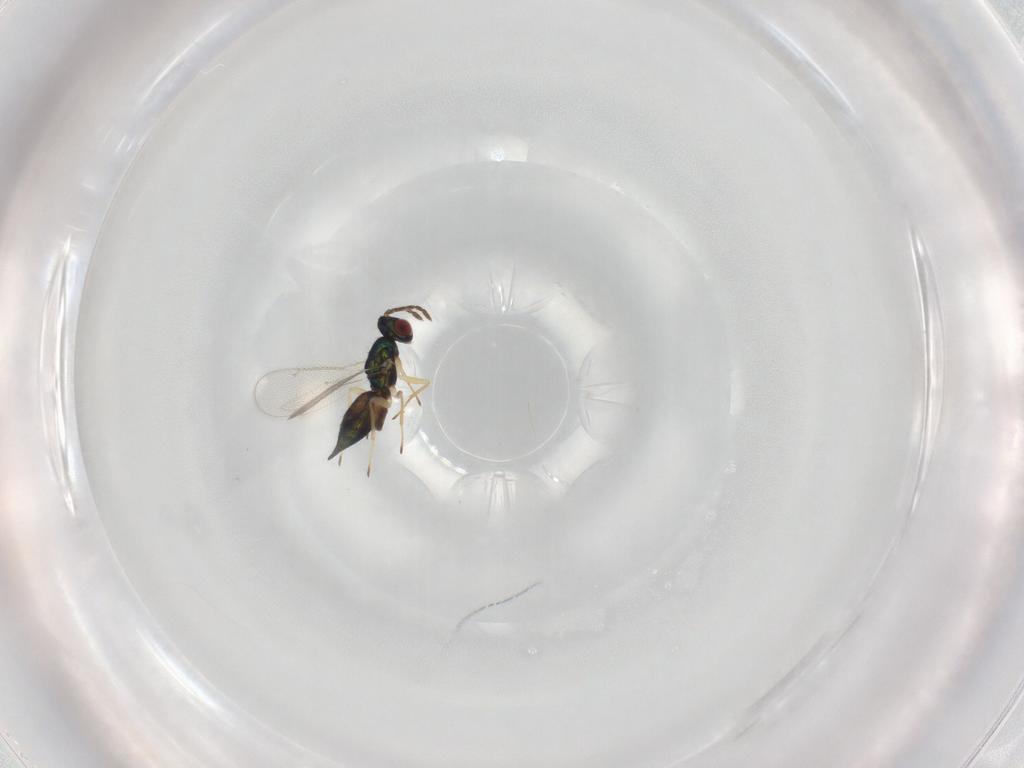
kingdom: Animalia
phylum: Arthropoda
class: Insecta
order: Hymenoptera
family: Eulophidae
